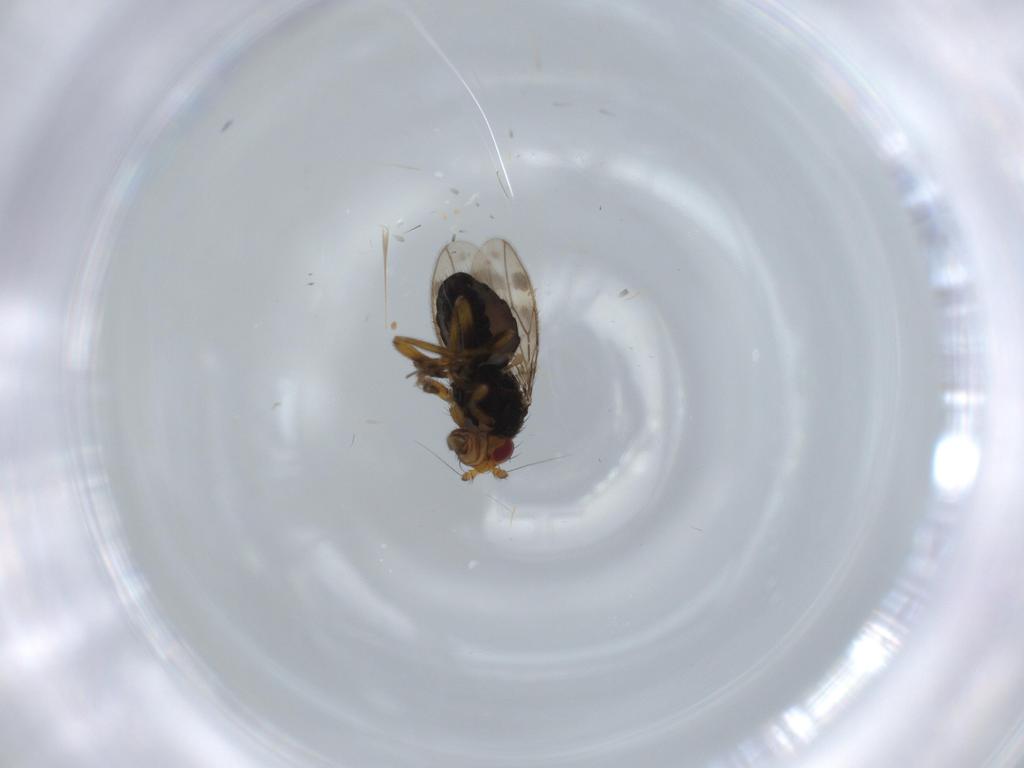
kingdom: Animalia
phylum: Arthropoda
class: Insecta
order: Diptera
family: Sphaeroceridae
